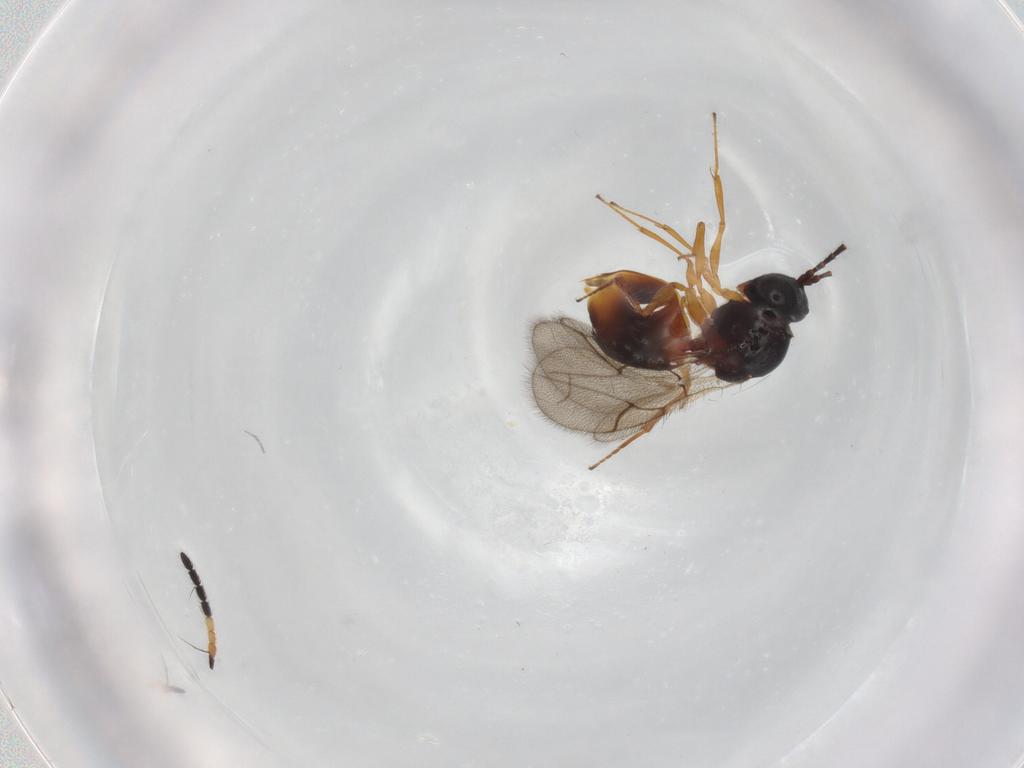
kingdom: Animalia
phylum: Arthropoda
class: Insecta
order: Hymenoptera
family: Figitidae
